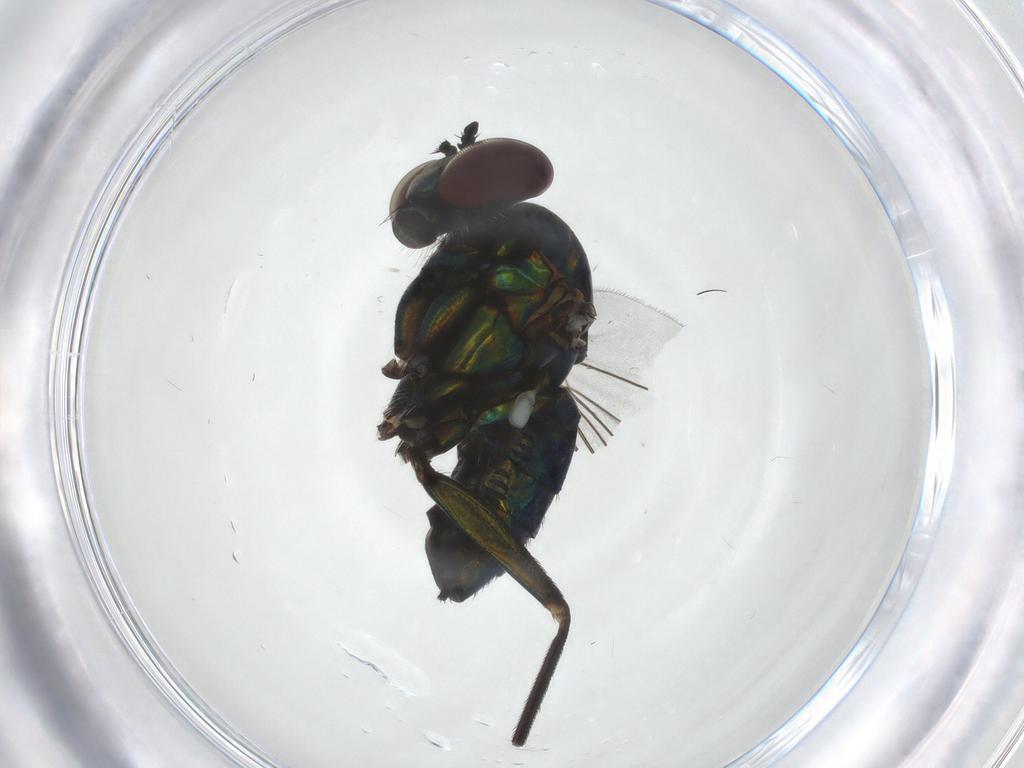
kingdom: Animalia
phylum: Arthropoda
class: Insecta
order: Diptera
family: Dolichopodidae
